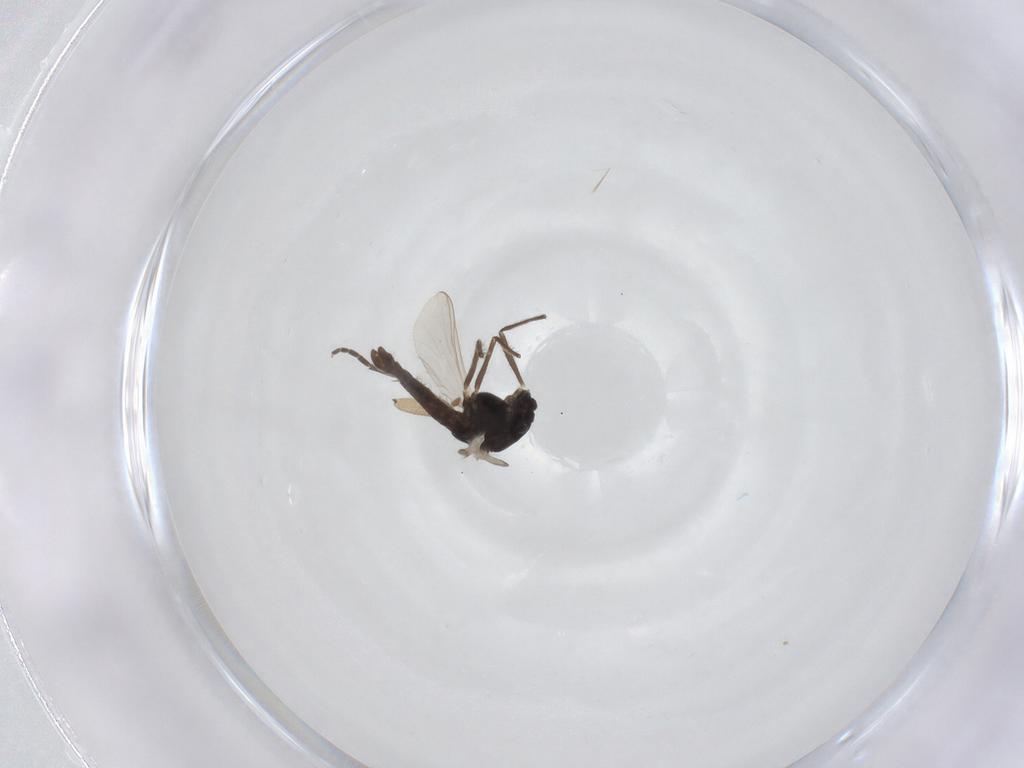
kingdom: Animalia
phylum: Arthropoda
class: Insecta
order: Diptera
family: Chironomidae
